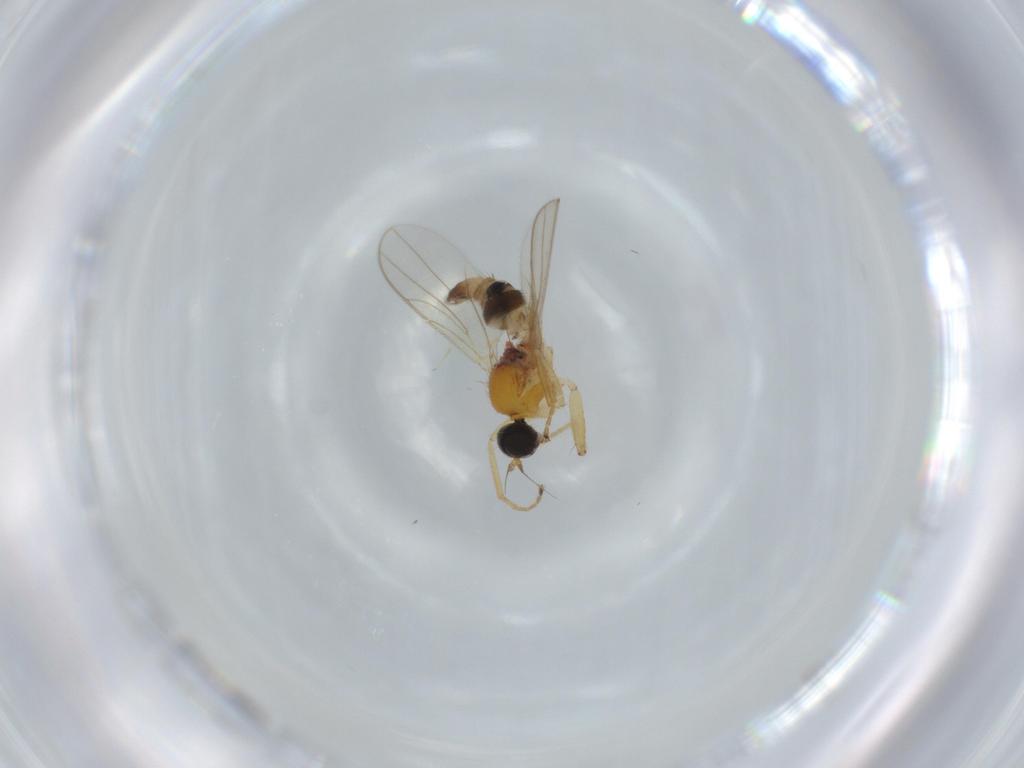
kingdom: Animalia
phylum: Arthropoda
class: Insecta
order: Diptera
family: Hybotidae
